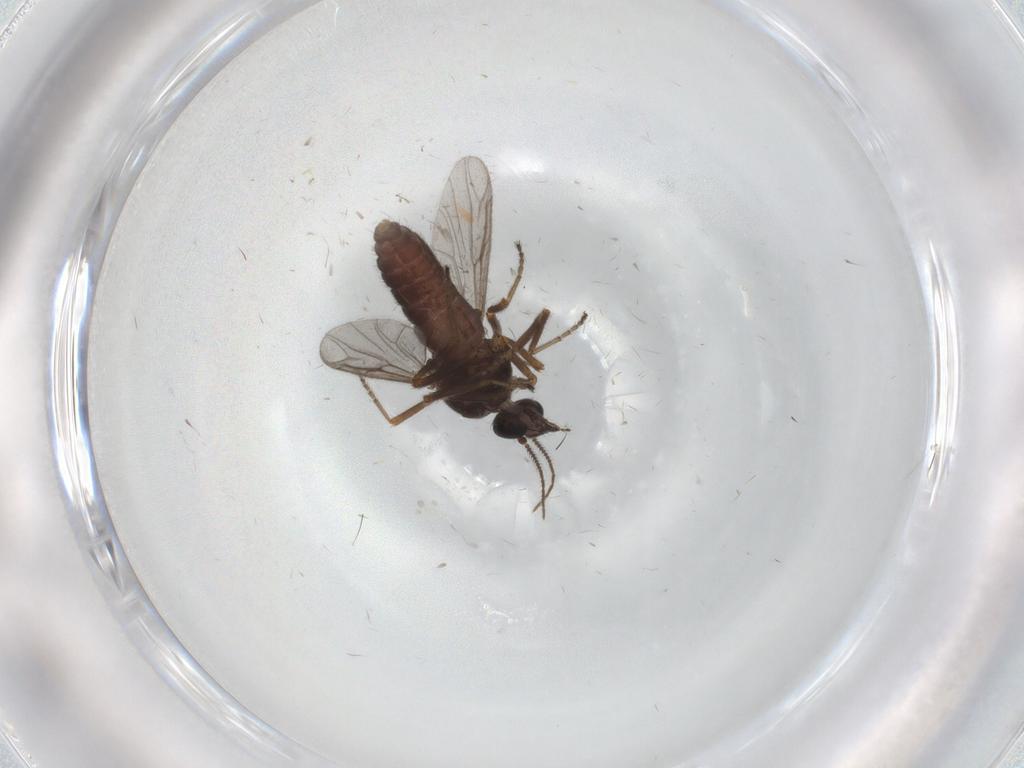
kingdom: Animalia
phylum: Arthropoda
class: Insecta
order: Diptera
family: Ceratopogonidae
